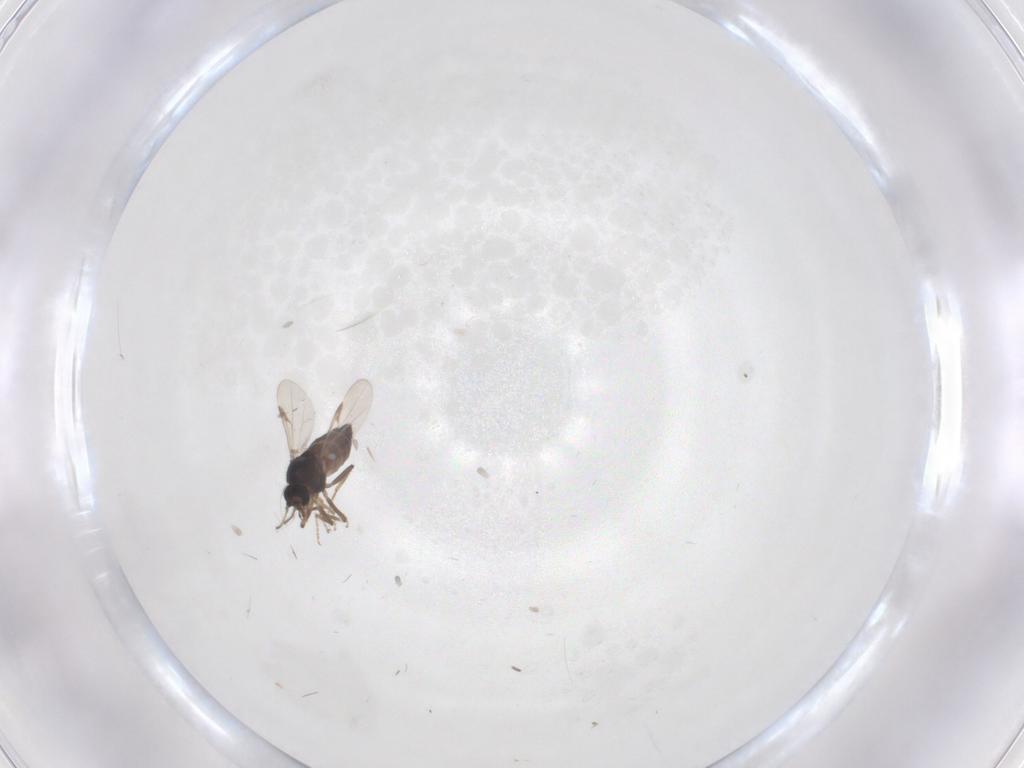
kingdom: Animalia
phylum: Arthropoda
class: Insecta
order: Diptera
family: Ceratopogonidae
